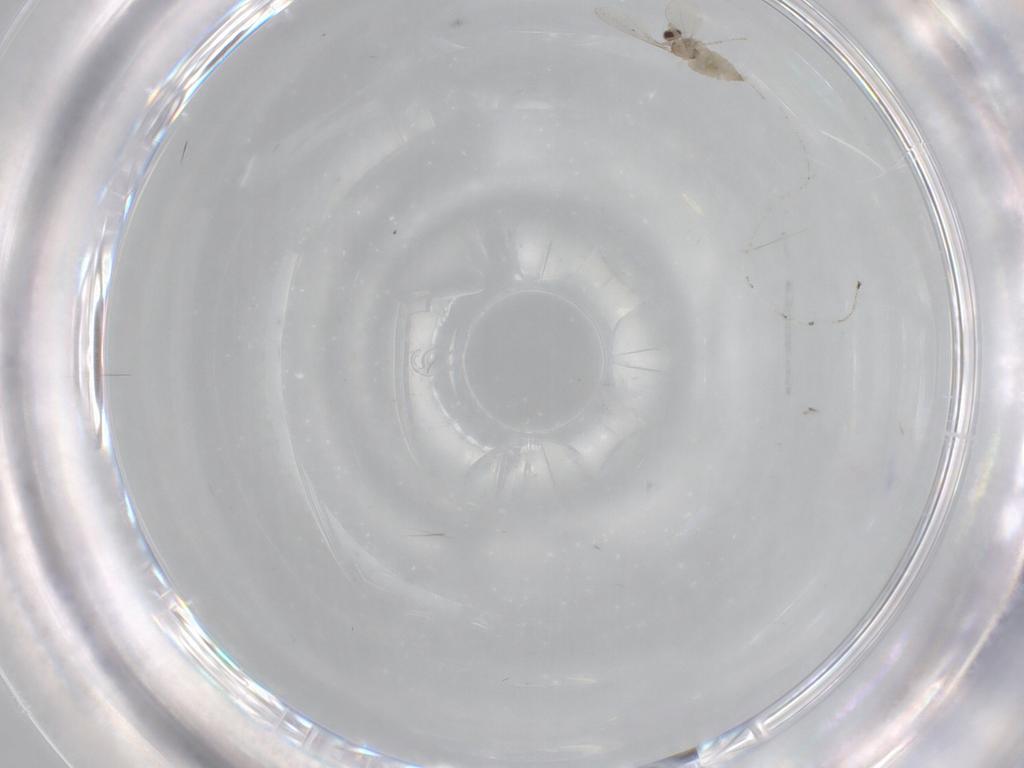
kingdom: Animalia
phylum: Arthropoda
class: Insecta
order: Diptera
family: Cecidomyiidae
